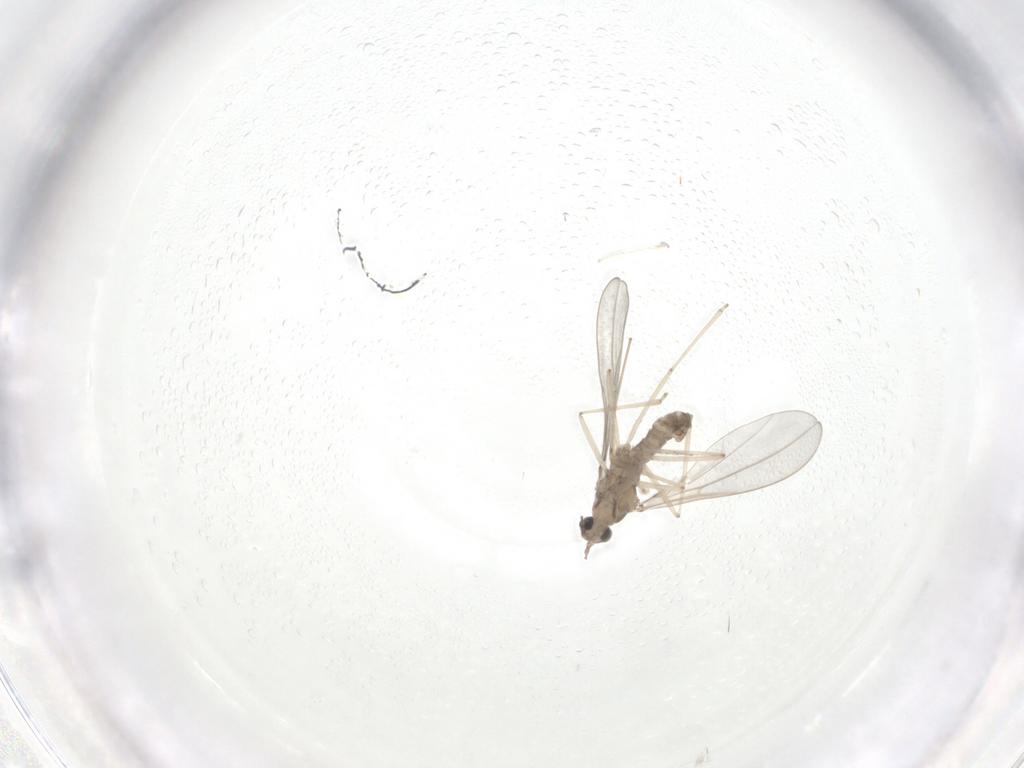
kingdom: Animalia
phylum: Arthropoda
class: Insecta
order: Diptera
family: Cecidomyiidae
